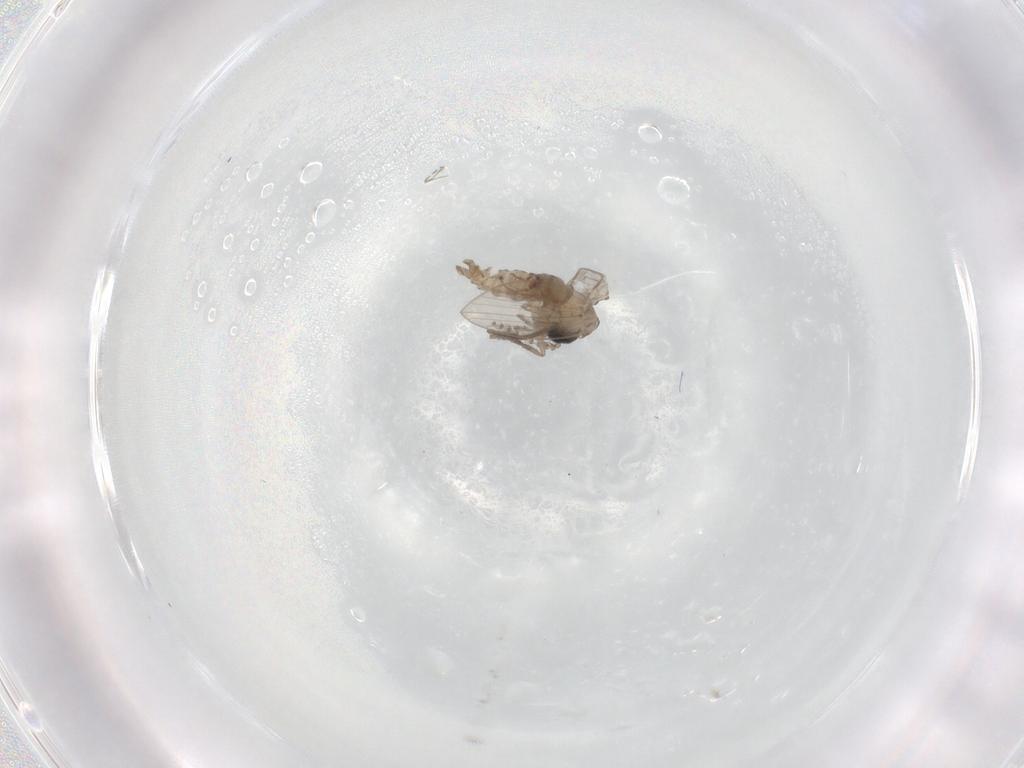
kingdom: Animalia
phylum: Arthropoda
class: Insecta
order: Diptera
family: Psychodidae
